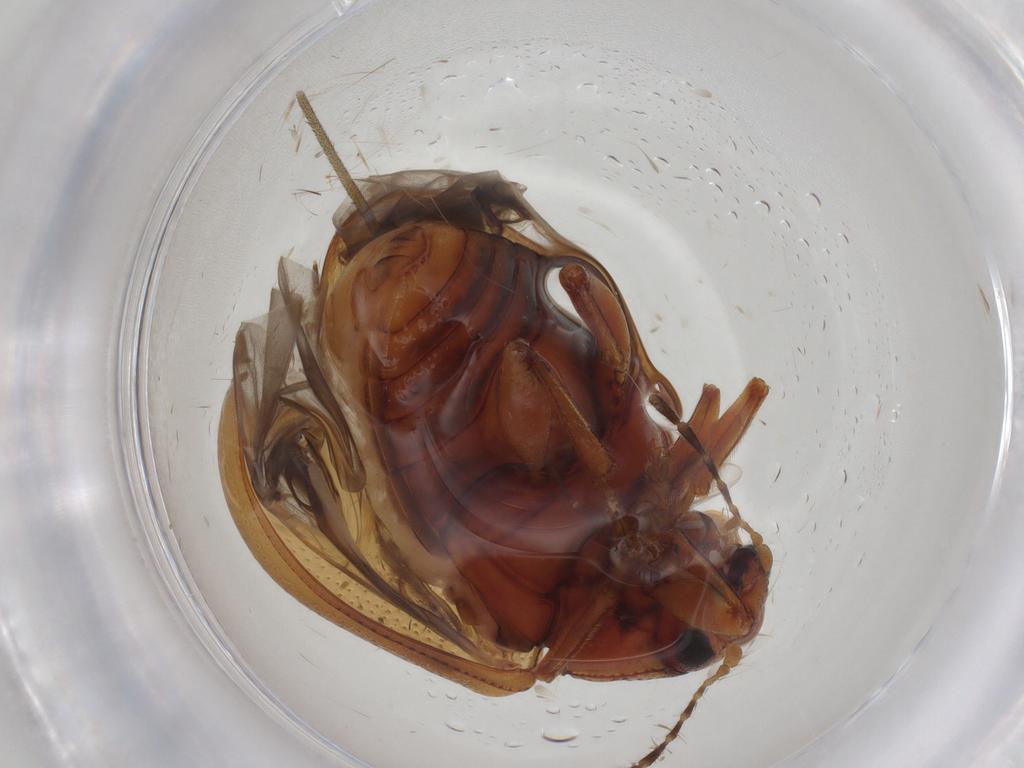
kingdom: Animalia
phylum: Arthropoda
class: Insecta
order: Coleoptera
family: Chrysomelidae
